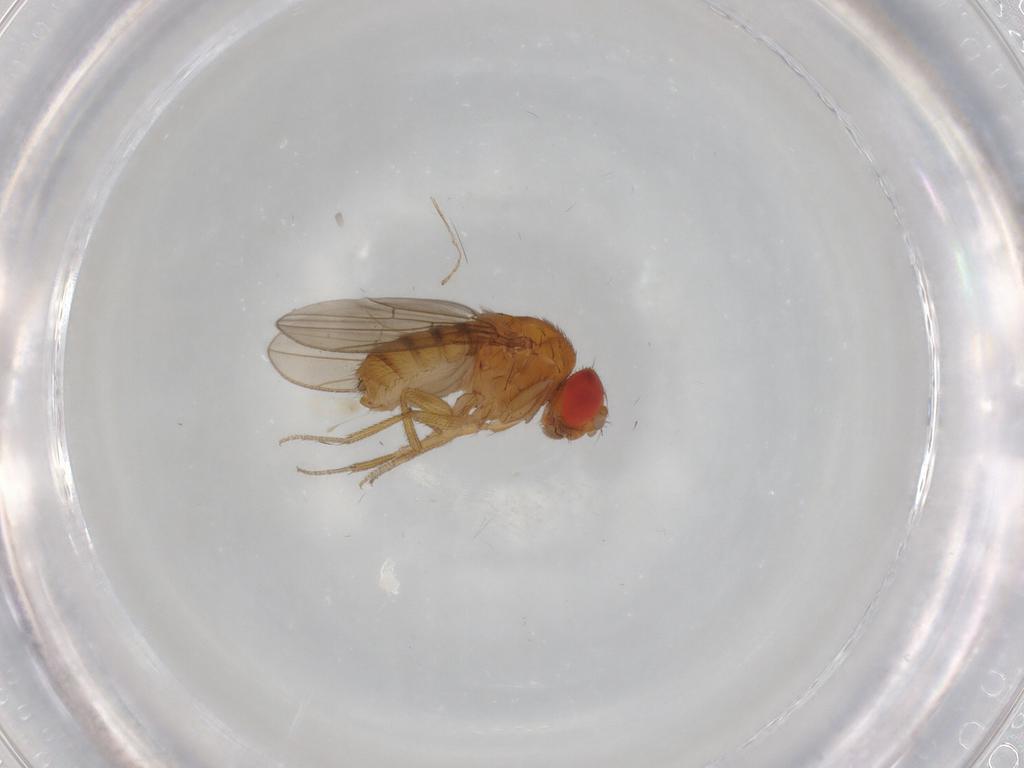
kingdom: Animalia
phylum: Arthropoda
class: Insecta
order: Diptera
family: Drosophilidae
